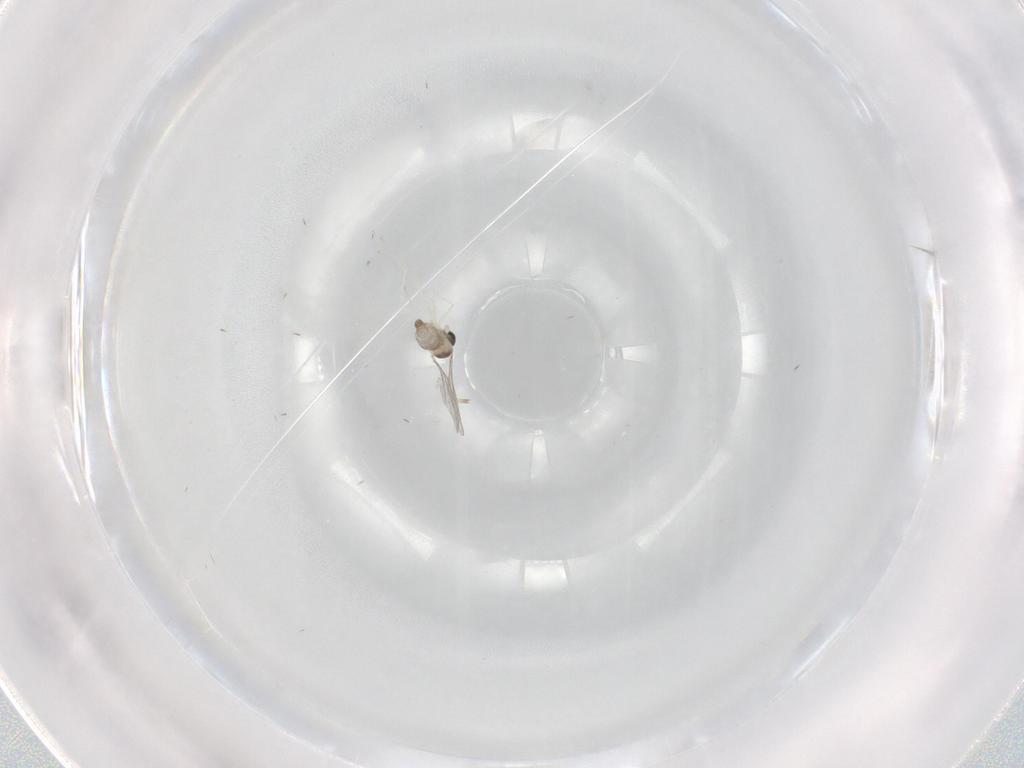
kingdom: Animalia
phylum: Arthropoda
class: Insecta
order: Diptera
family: Cecidomyiidae
